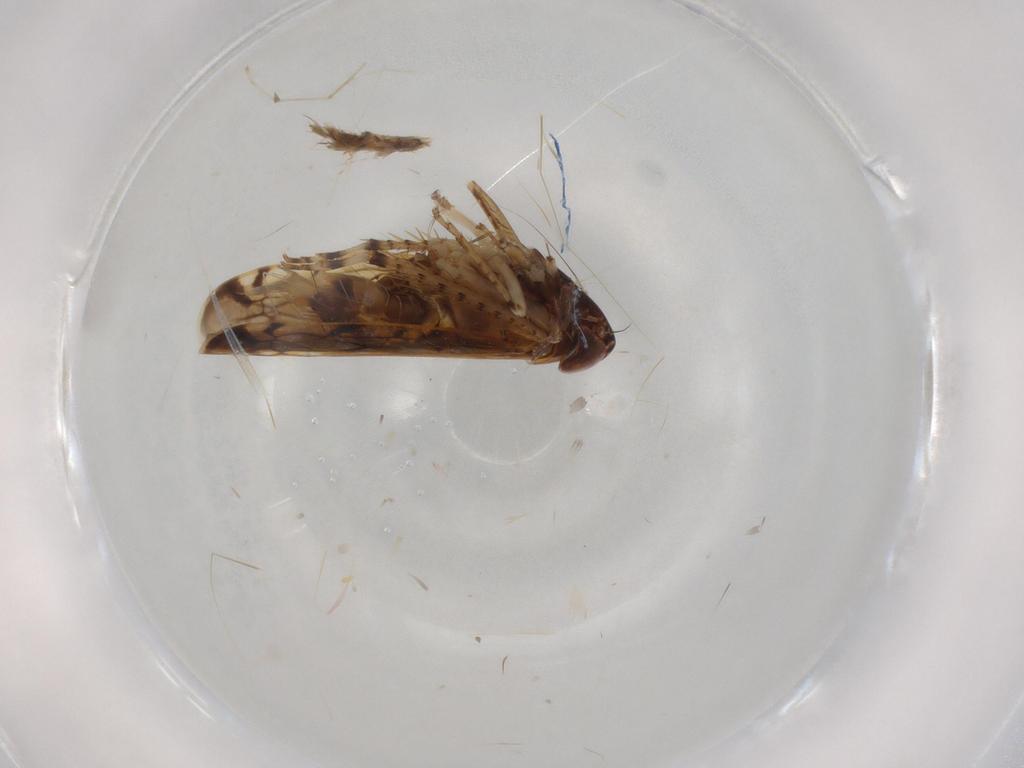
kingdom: Animalia
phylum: Arthropoda
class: Insecta
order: Hemiptera
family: Cicadellidae
